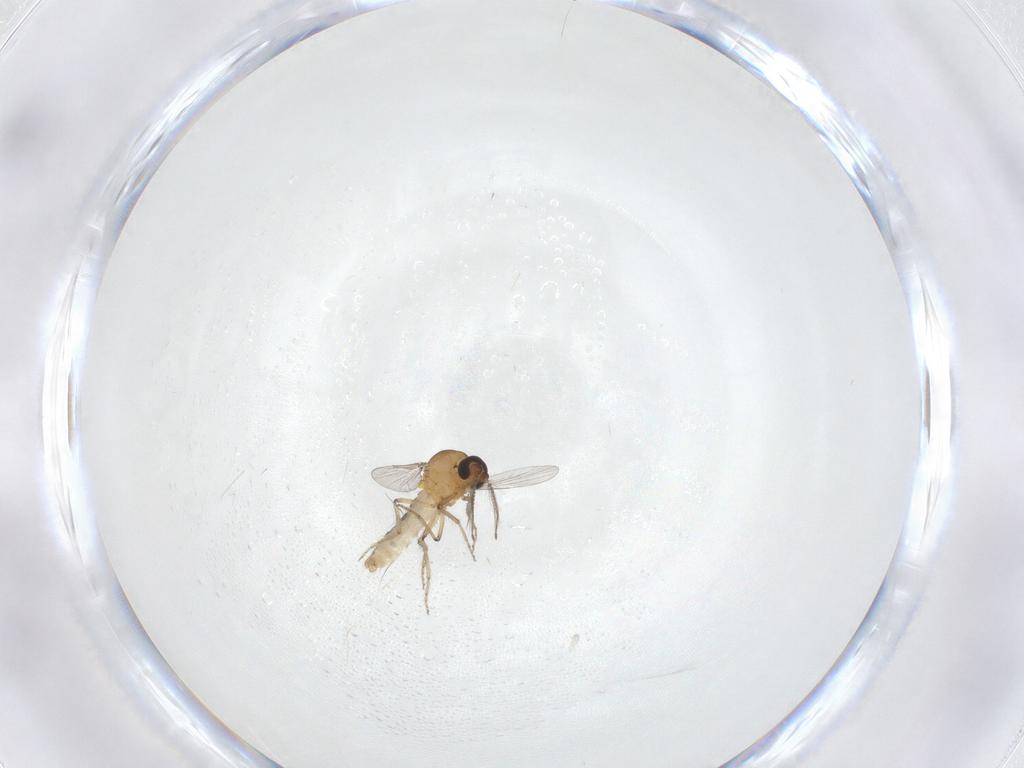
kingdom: Animalia
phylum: Arthropoda
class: Insecta
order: Diptera
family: Ceratopogonidae
